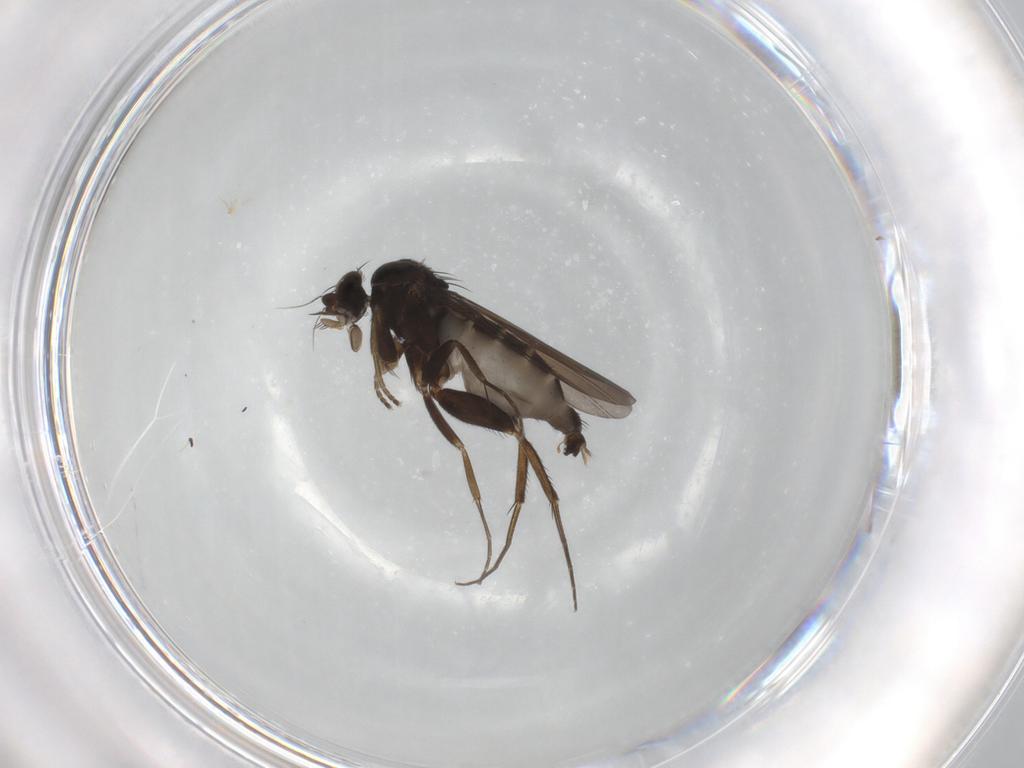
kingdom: Animalia
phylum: Arthropoda
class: Insecta
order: Diptera
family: Phoridae
